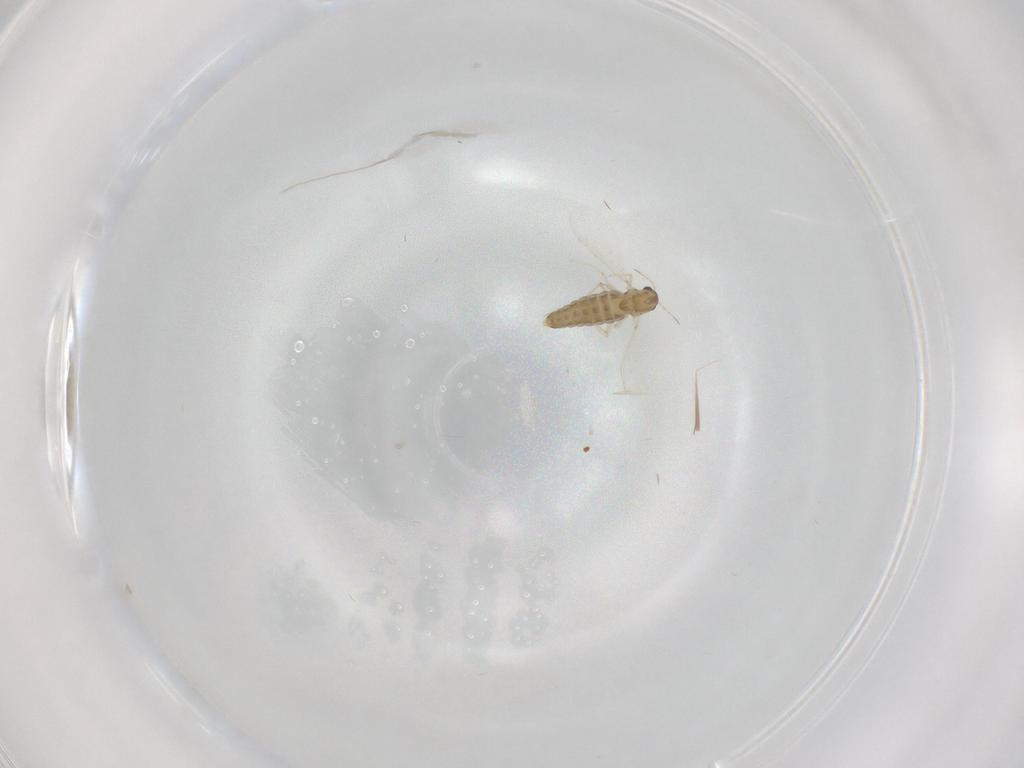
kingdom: Animalia
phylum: Arthropoda
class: Insecta
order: Diptera
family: Chironomidae
